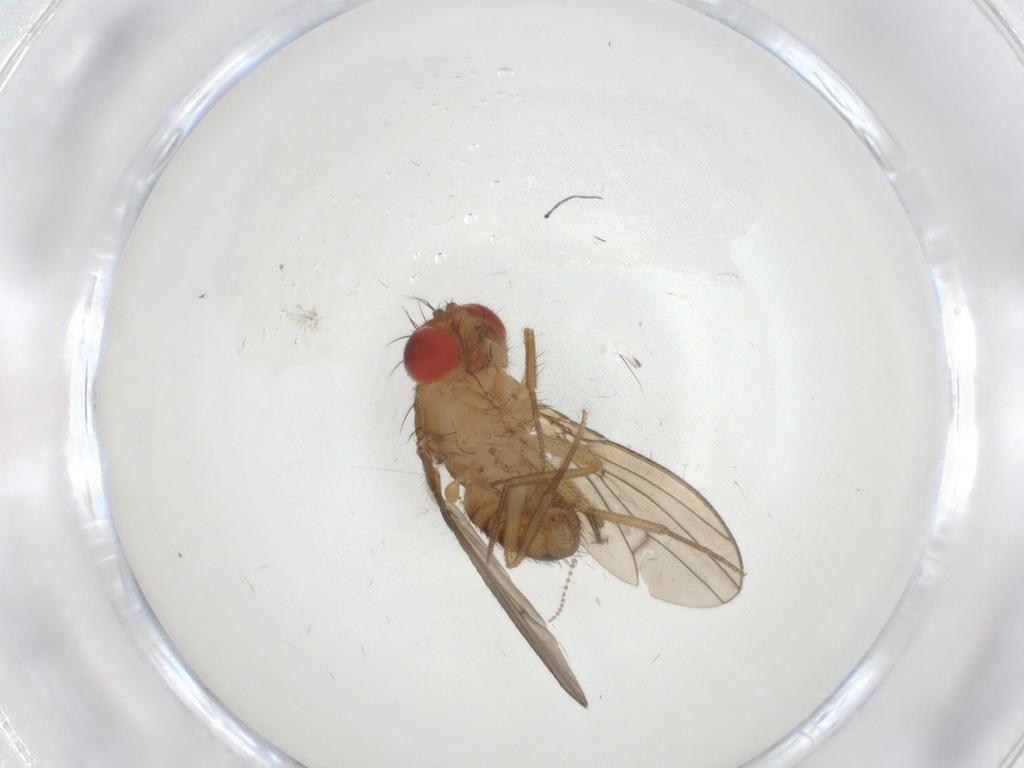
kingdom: Animalia
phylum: Arthropoda
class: Insecta
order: Diptera
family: Drosophilidae
